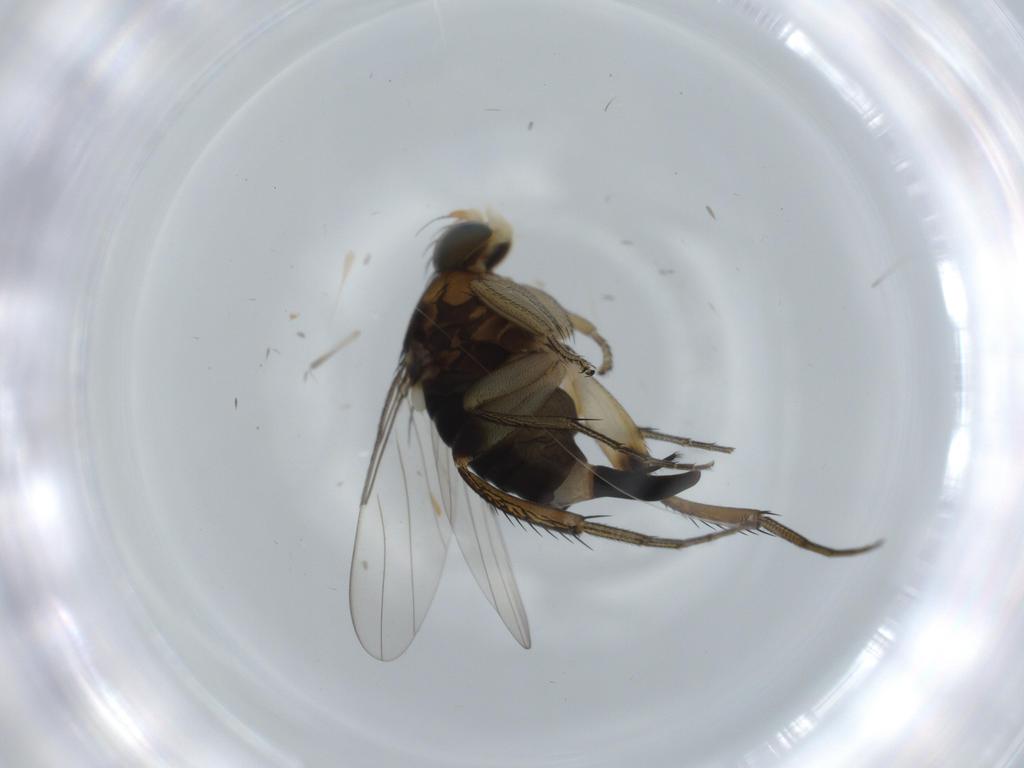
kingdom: Animalia
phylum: Arthropoda
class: Insecta
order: Diptera
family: Phoridae
